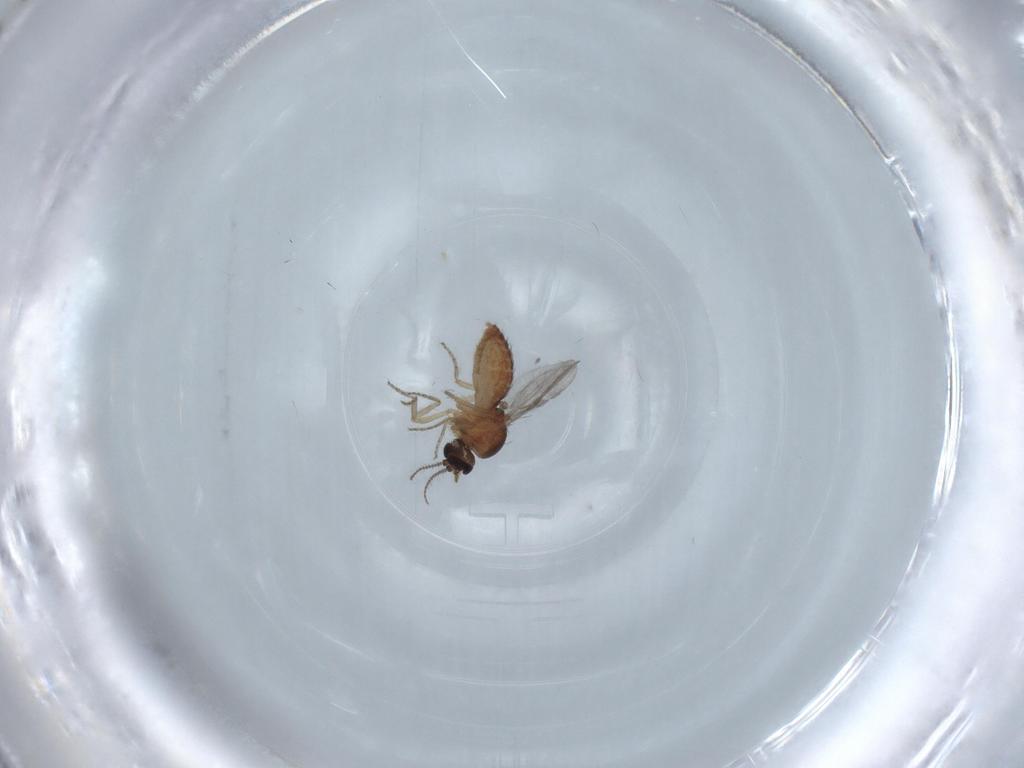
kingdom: Animalia
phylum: Arthropoda
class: Insecta
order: Diptera
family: Ceratopogonidae
